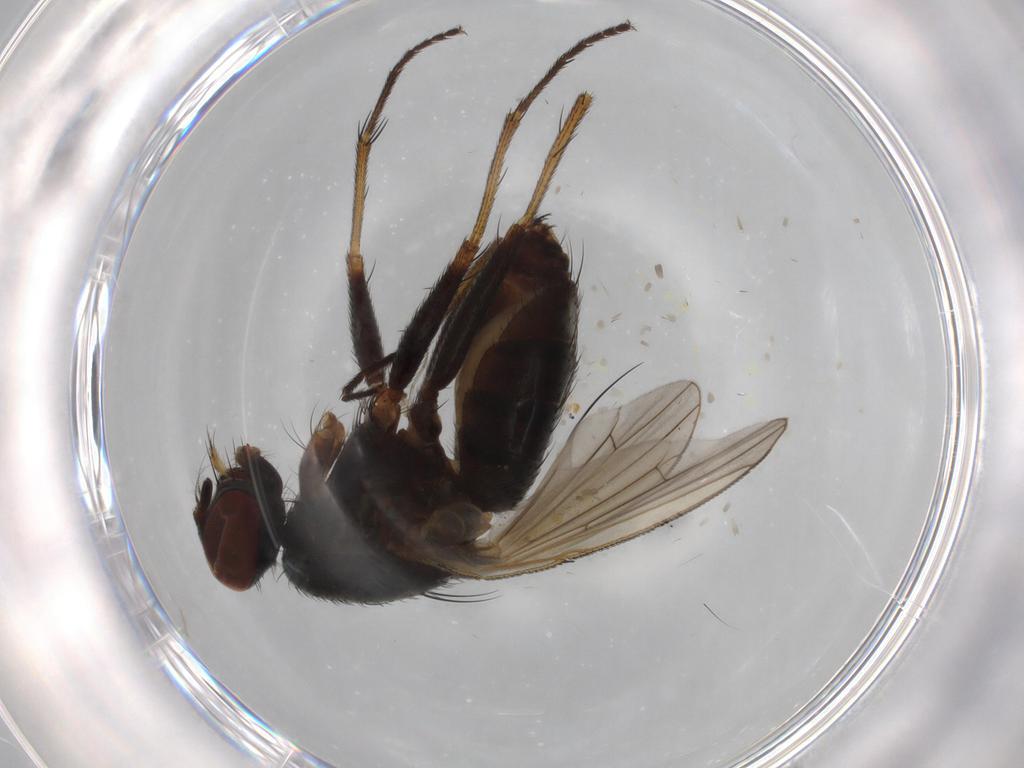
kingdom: Animalia
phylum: Arthropoda
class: Insecta
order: Diptera
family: Muscidae
